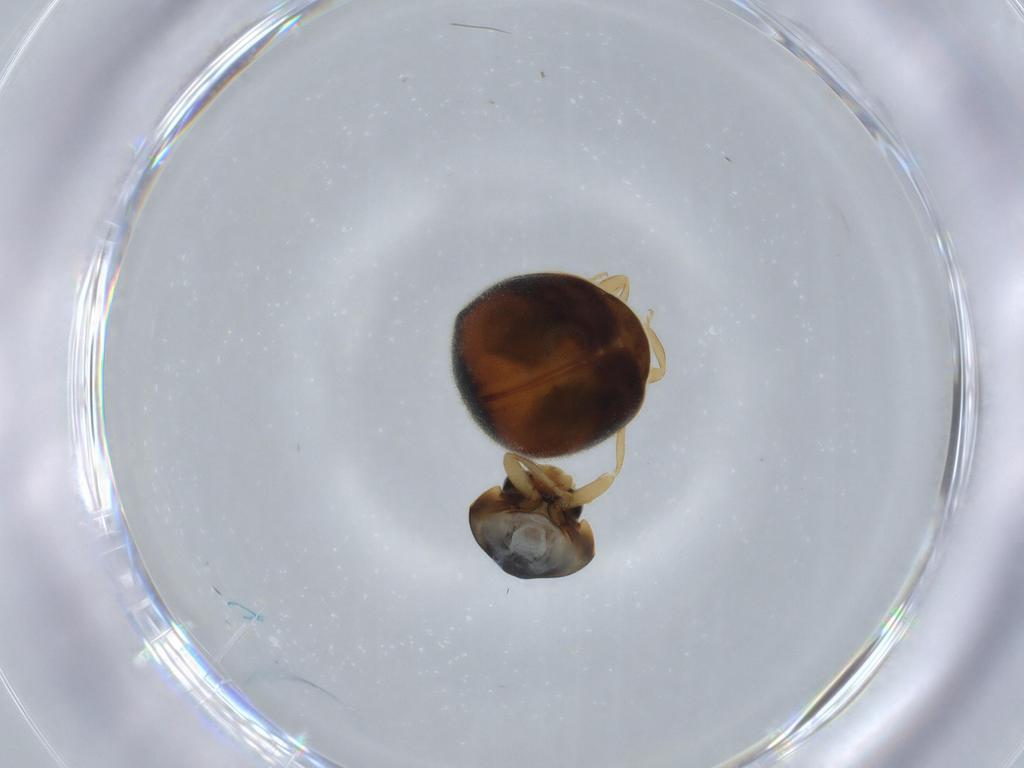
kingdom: Animalia
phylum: Arthropoda
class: Insecta
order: Coleoptera
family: Coccinellidae
